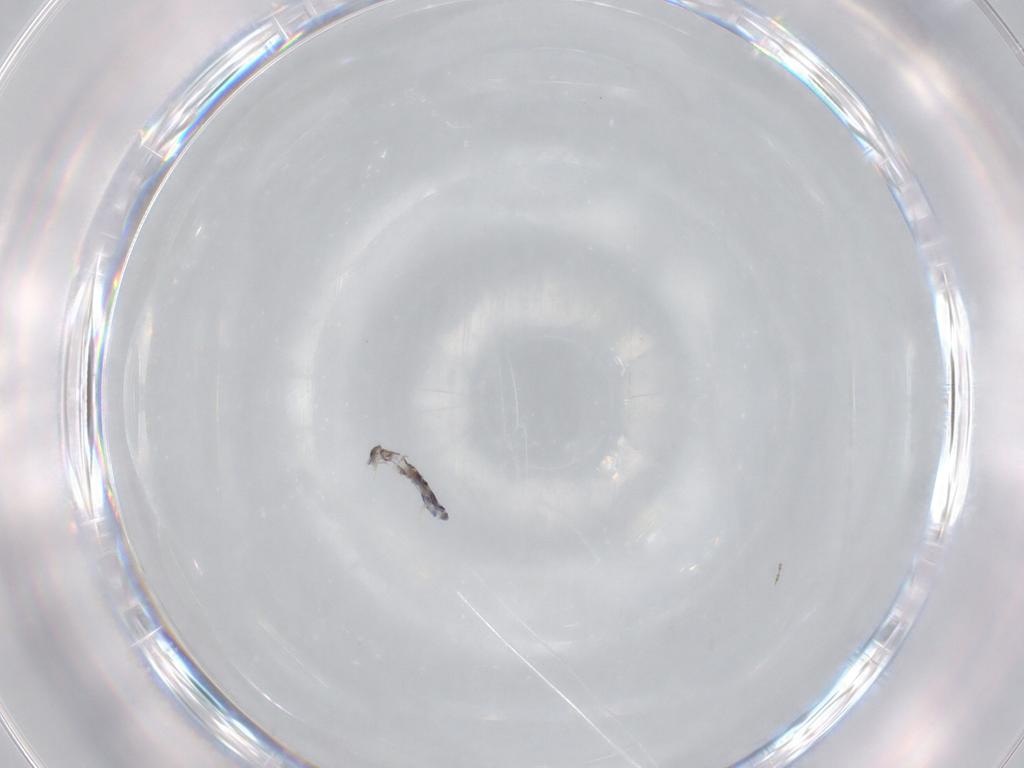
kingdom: Animalia
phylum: Arthropoda
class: Collembola
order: Entomobryomorpha
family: Entomobryidae
